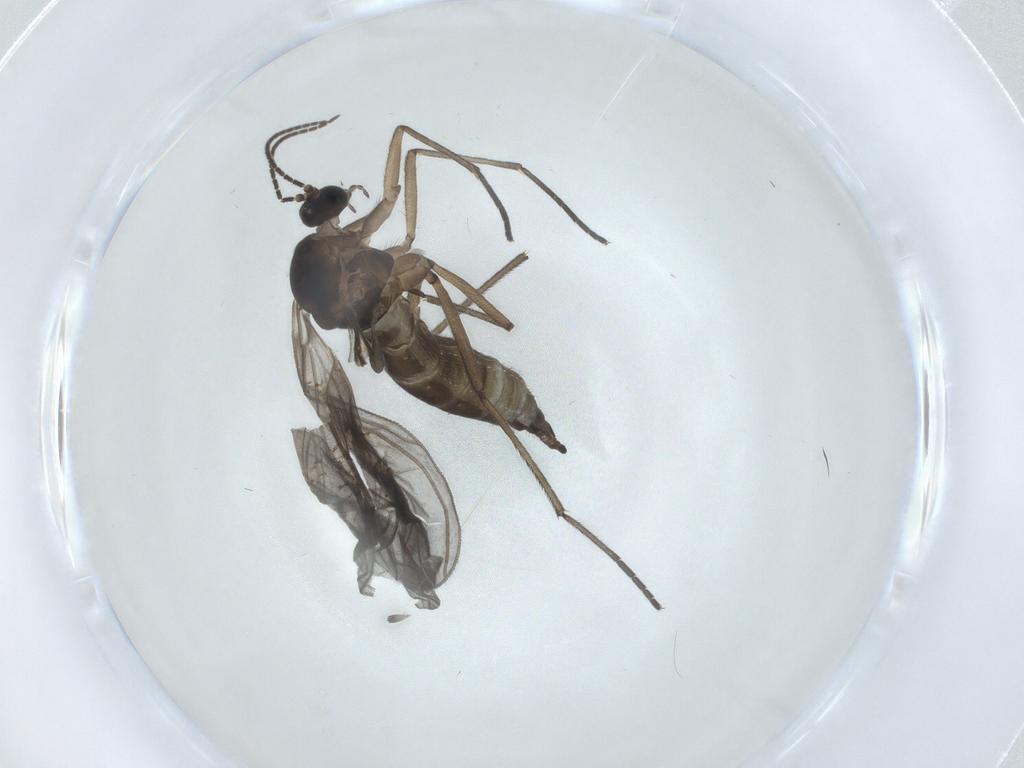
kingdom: Animalia
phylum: Arthropoda
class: Insecta
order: Diptera
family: Sciaridae
